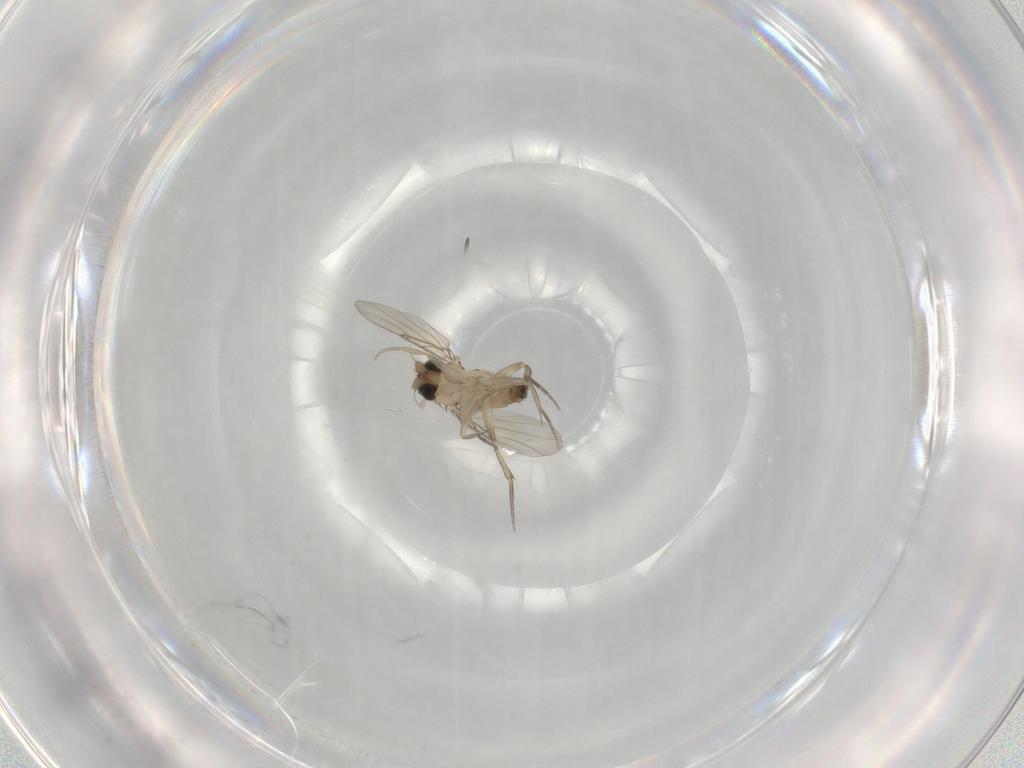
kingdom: Animalia
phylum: Arthropoda
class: Insecta
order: Diptera
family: Phoridae
